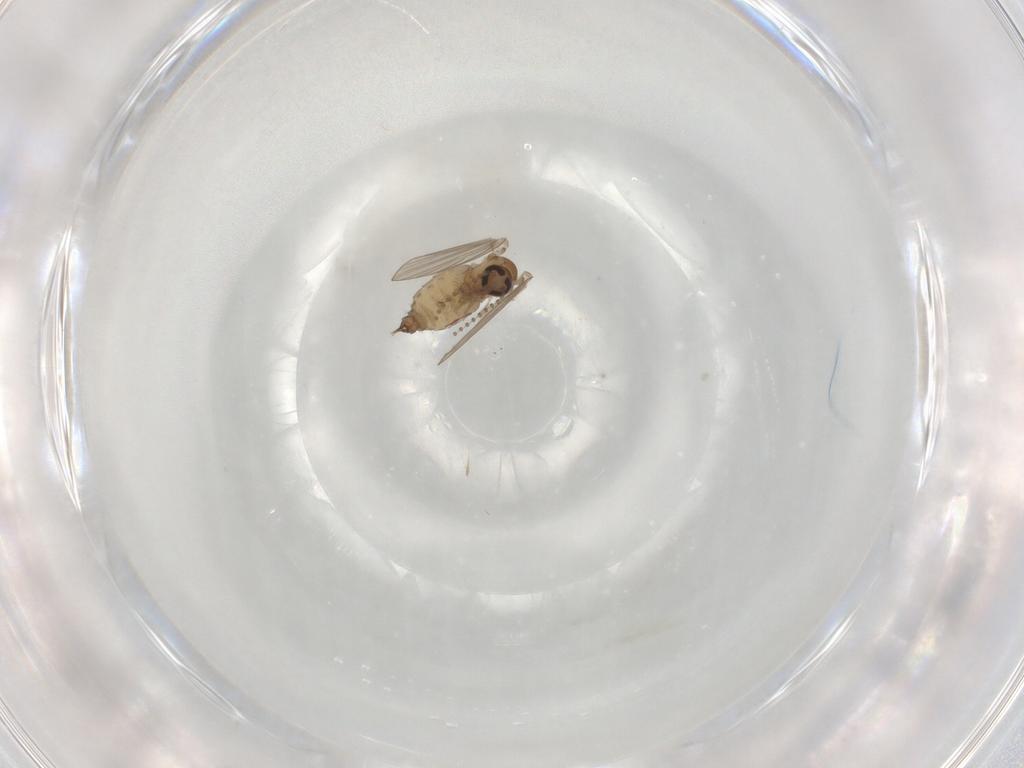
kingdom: Animalia
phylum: Arthropoda
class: Insecta
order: Diptera
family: Psychodidae
